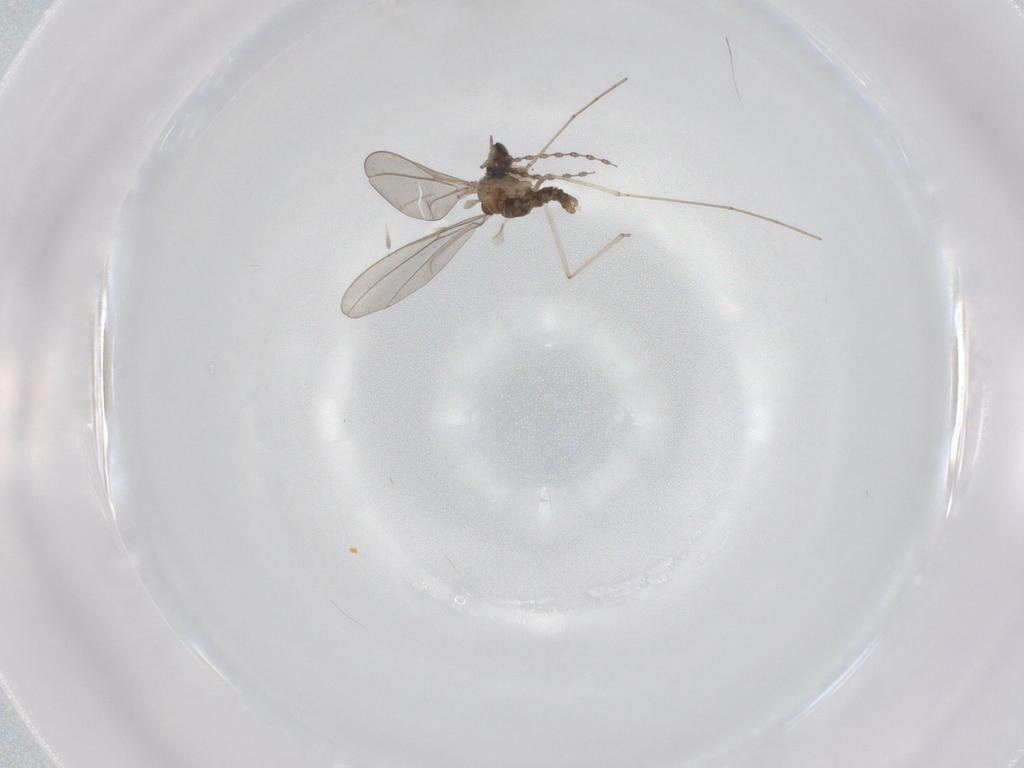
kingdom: Animalia
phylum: Arthropoda
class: Insecta
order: Diptera
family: Cecidomyiidae
